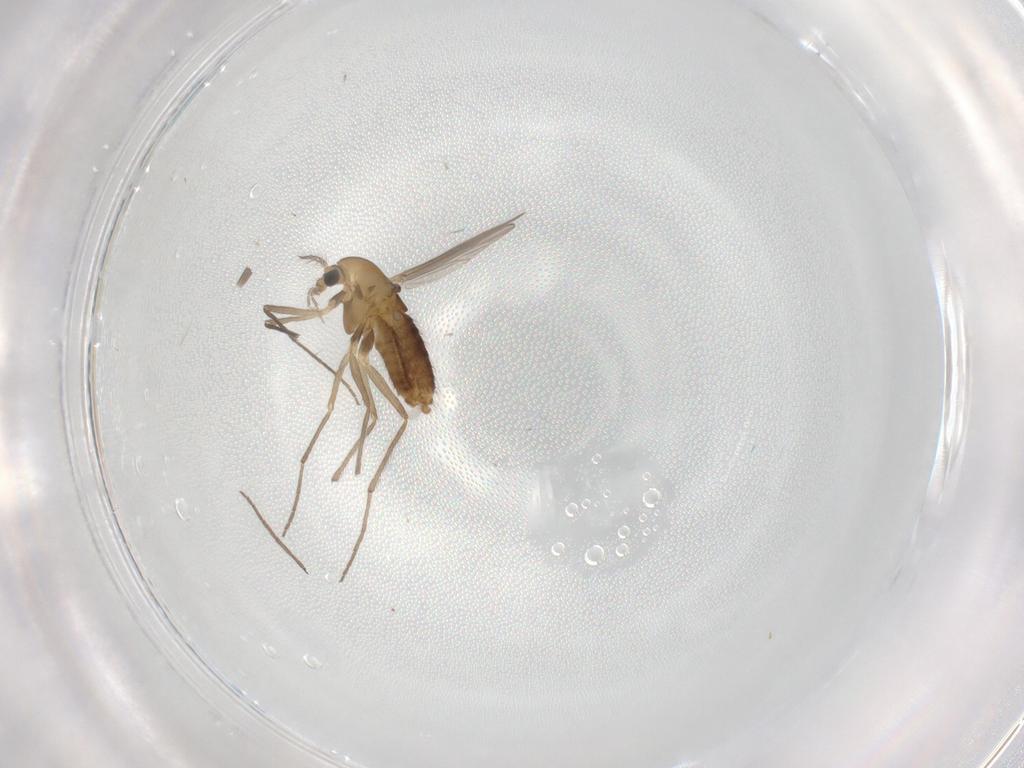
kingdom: Animalia
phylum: Arthropoda
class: Insecta
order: Diptera
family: Chironomidae
